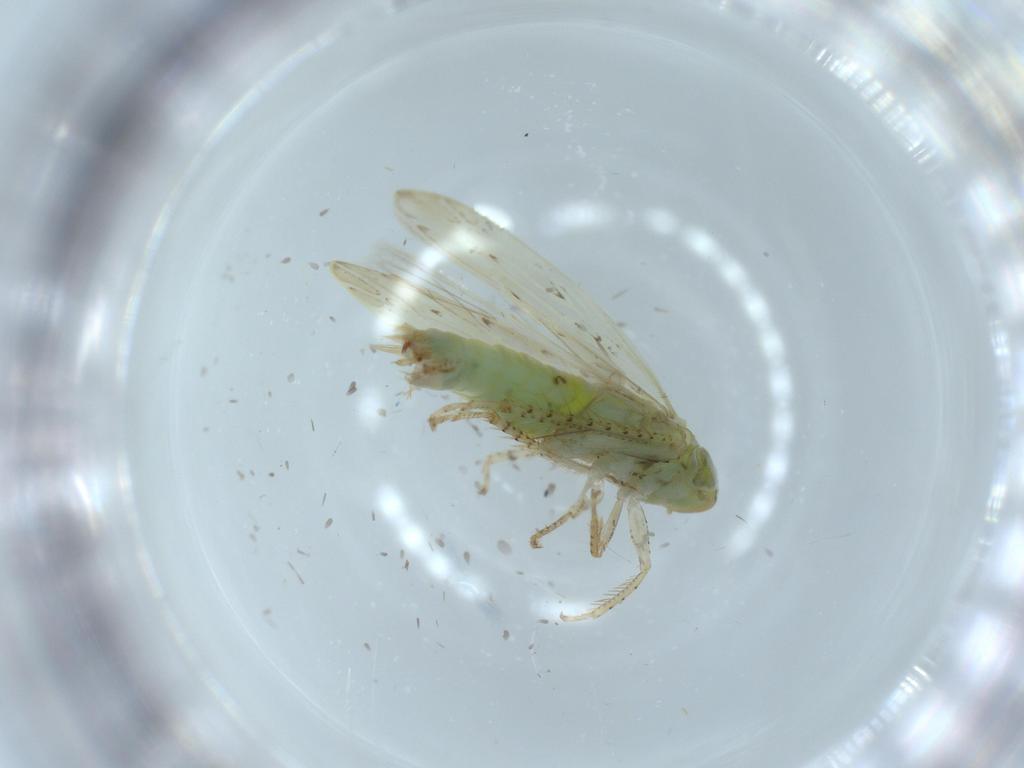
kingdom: Animalia
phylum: Arthropoda
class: Insecta
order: Hemiptera
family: Cicadellidae
